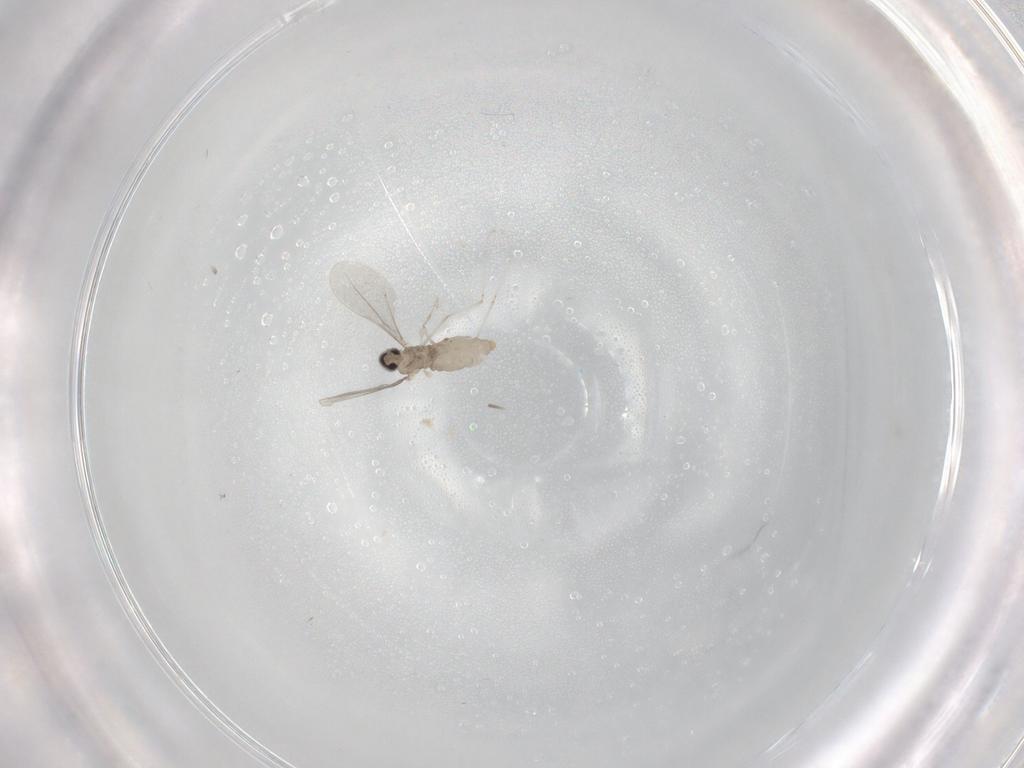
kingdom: Animalia
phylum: Arthropoda
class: Insecta
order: Diptera
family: Cecidomyiidae
